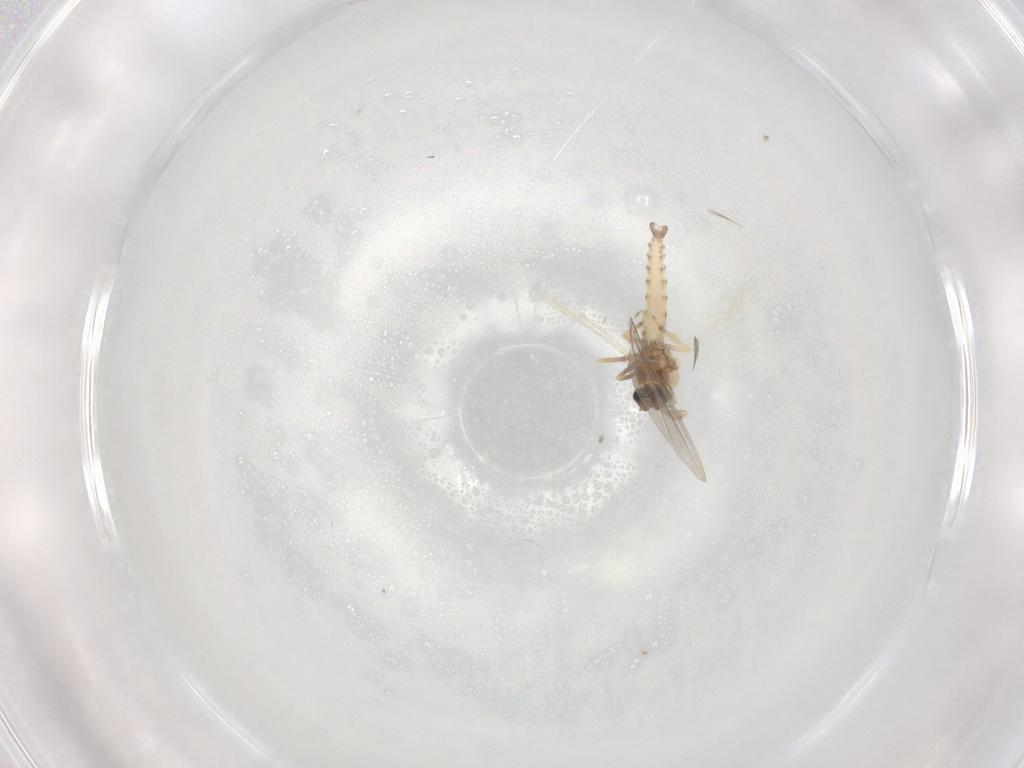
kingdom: Animalia
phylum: Arthropoda
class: Insecta
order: Diptera
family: Cecidomyiidae
